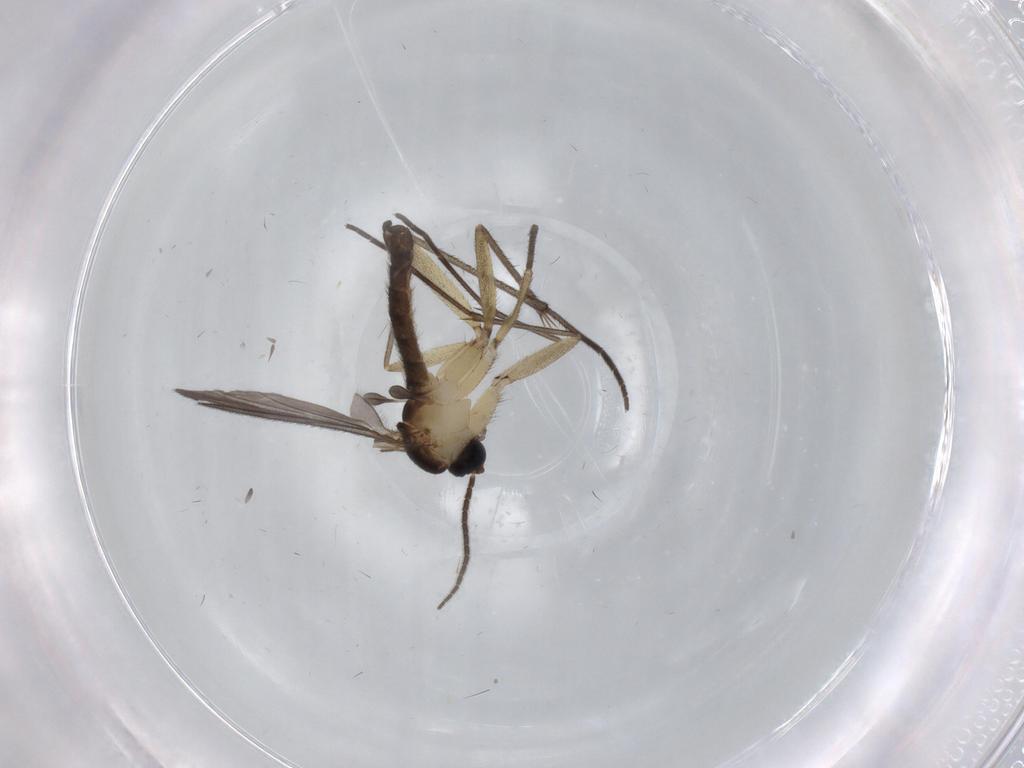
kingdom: Animalia
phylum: Arthropoda
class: Insecta
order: Diptera
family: Sciaridae
